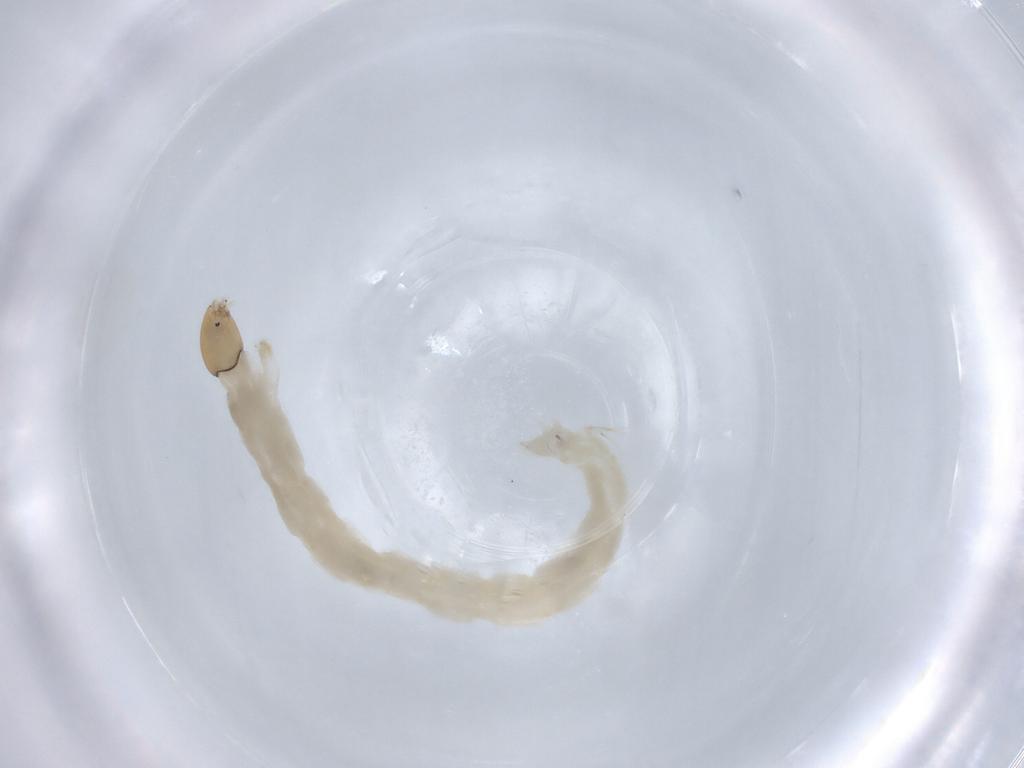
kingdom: Animalia
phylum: Arthropoda
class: Insecta
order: Diptera
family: Chironomidae
